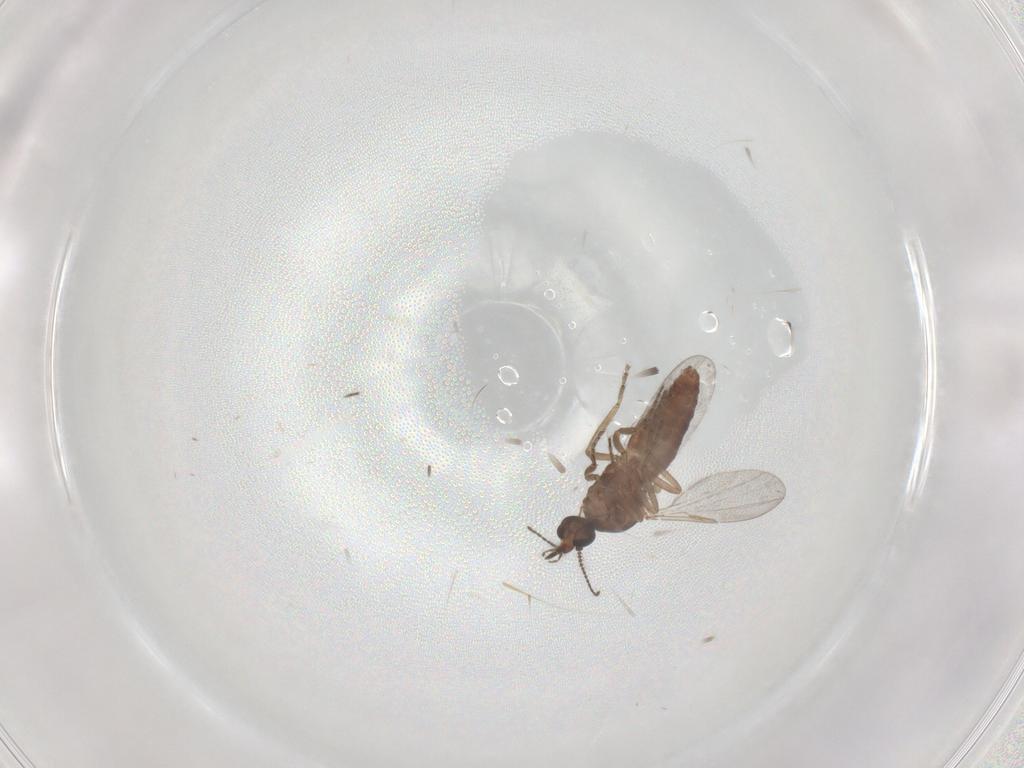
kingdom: Animalia
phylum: Arthropoda
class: Insecta
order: Diptera
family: Ceratopogonidae
